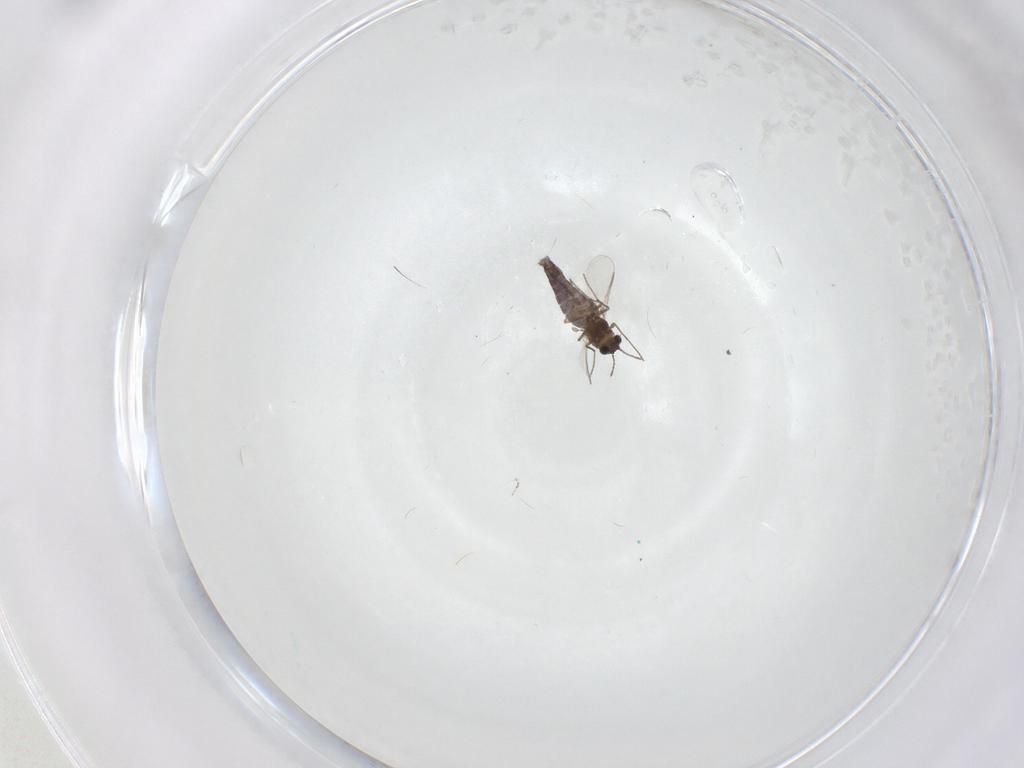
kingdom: Animalia
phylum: Arthropoda
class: Insecta
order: Diptera
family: Chironomidae
